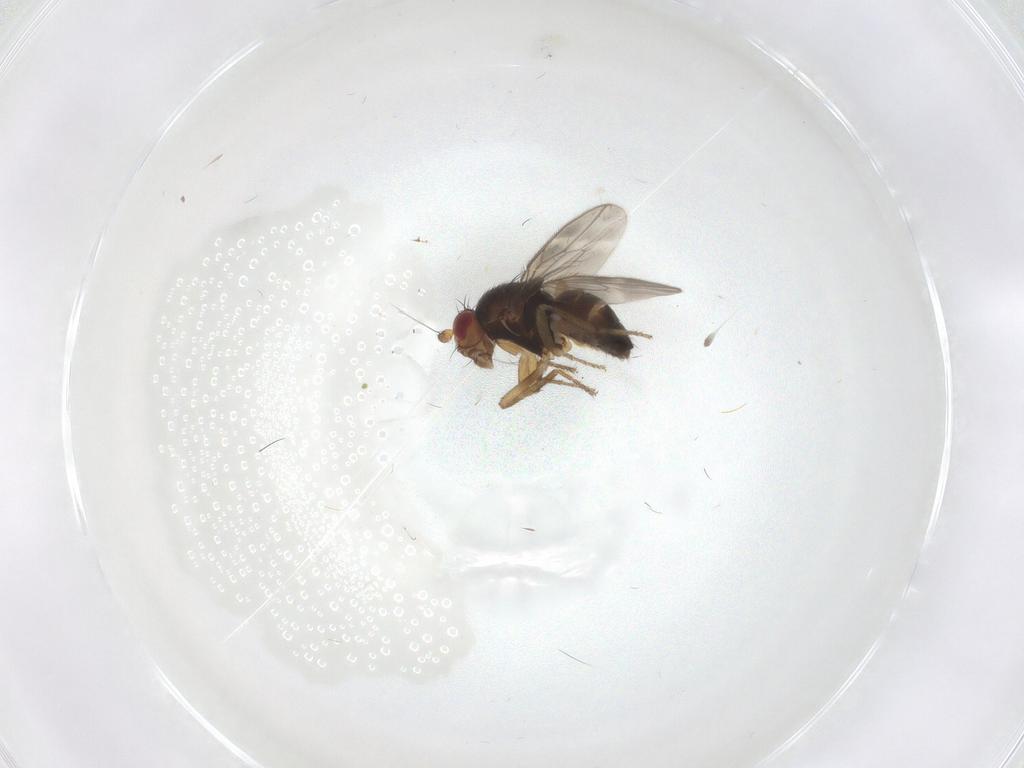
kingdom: Animalia
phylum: Arthropoda
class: Insecta
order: Diptera
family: Sphaeroceridae
